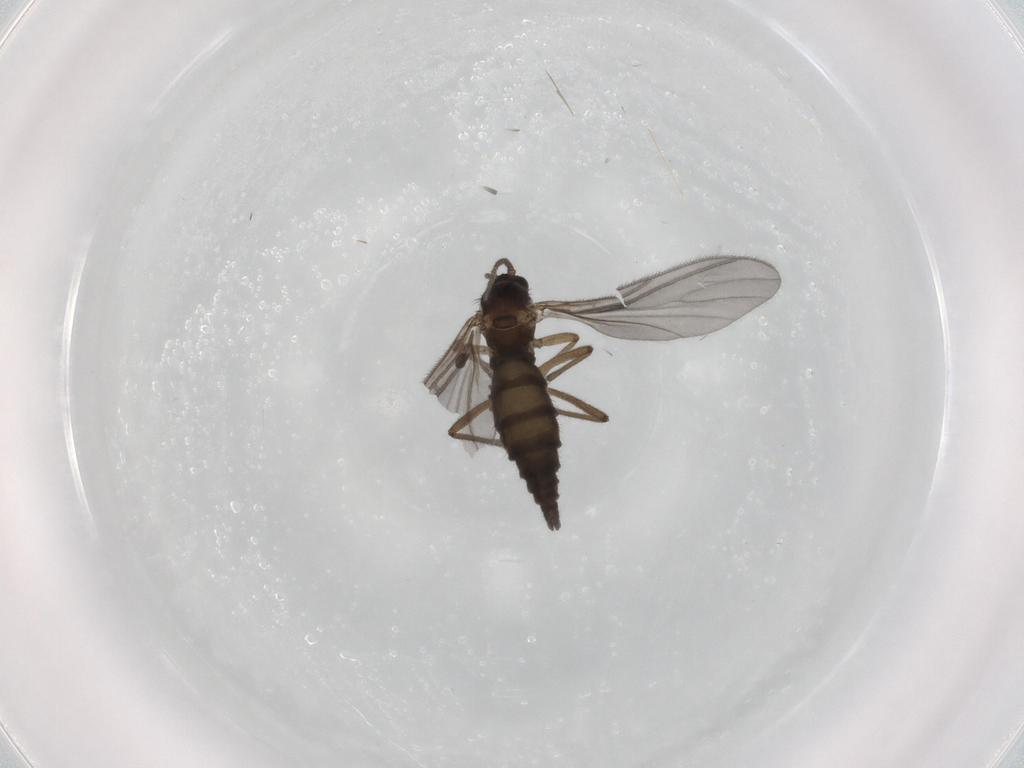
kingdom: Animalia
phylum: Arthropoda
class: Insecta
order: Diptera
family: Sciaridae
